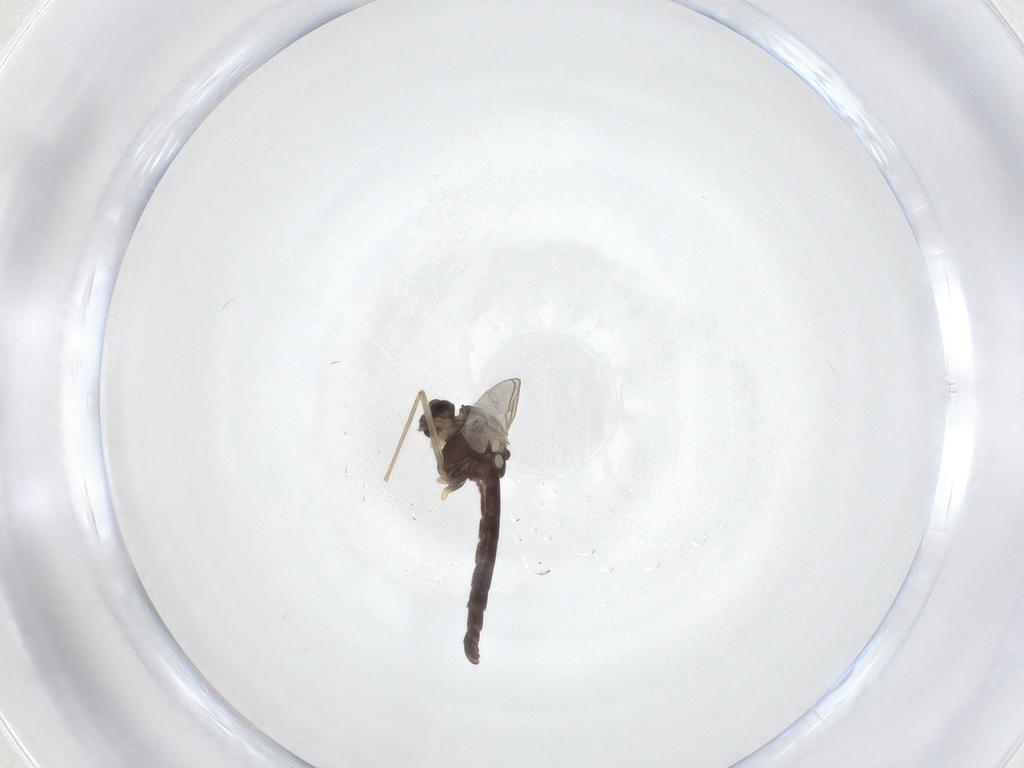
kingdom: Animalia
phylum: Arthropoda
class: Insecta
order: Diptera
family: Chironomidae
